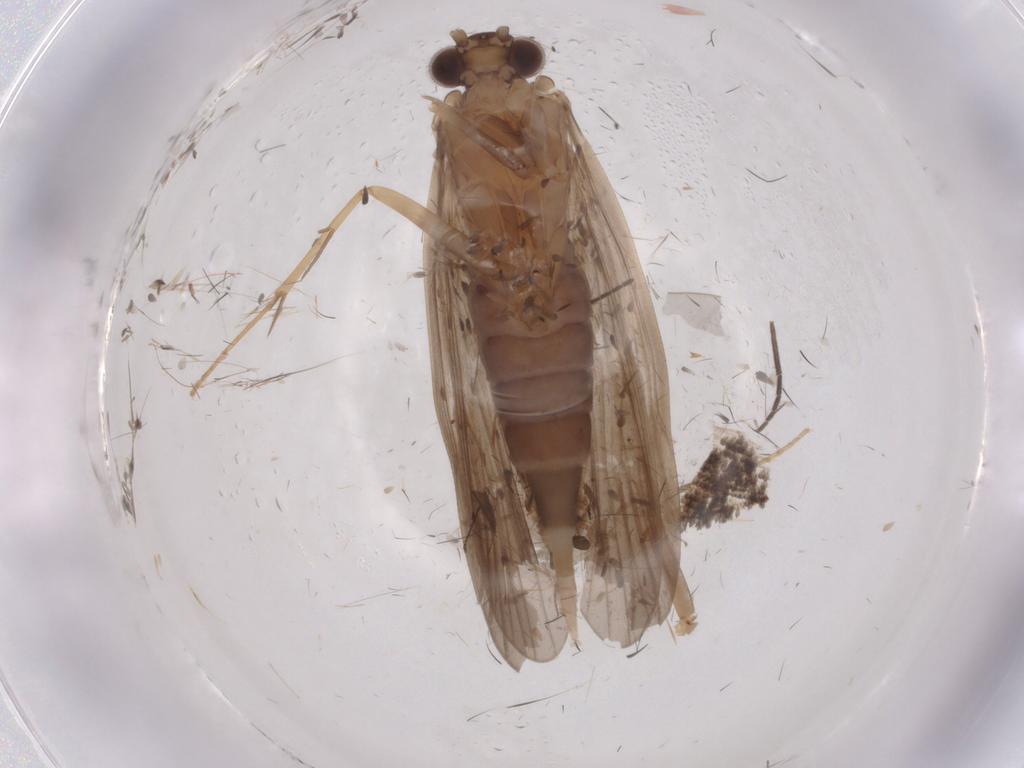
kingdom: Animalia
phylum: Arthropoda
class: Insecta
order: Trichoptera
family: Philopotamidae
